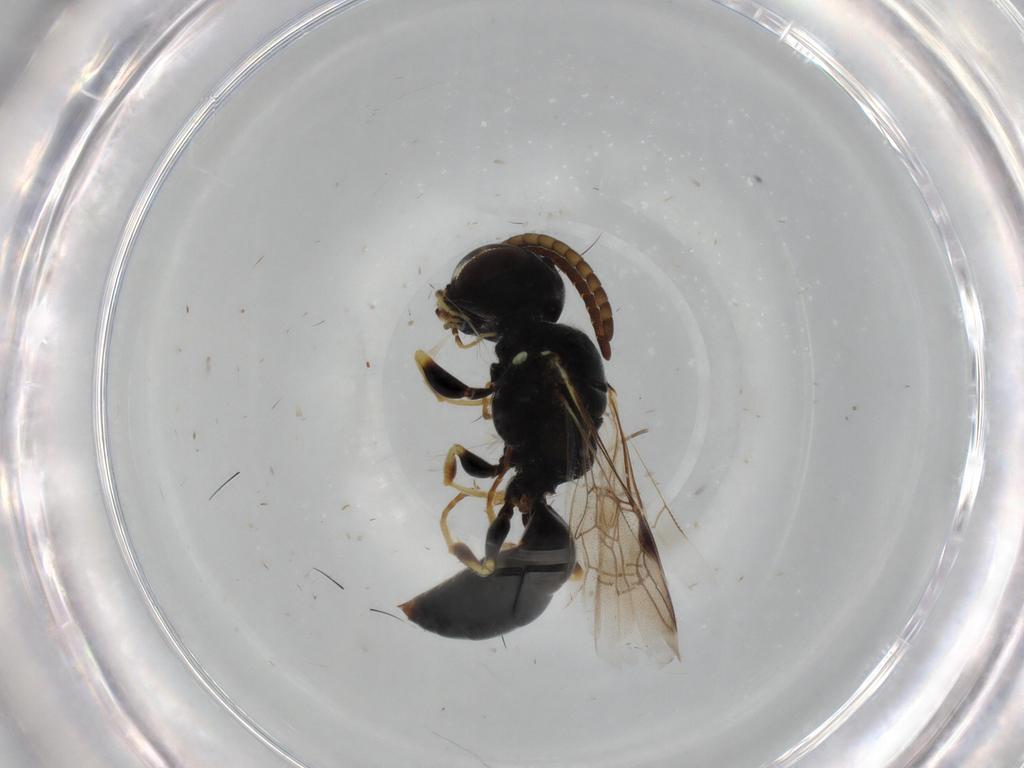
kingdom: Animalia
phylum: Arthropoda
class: Insecta
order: Hymenoptera
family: Crabronidae
